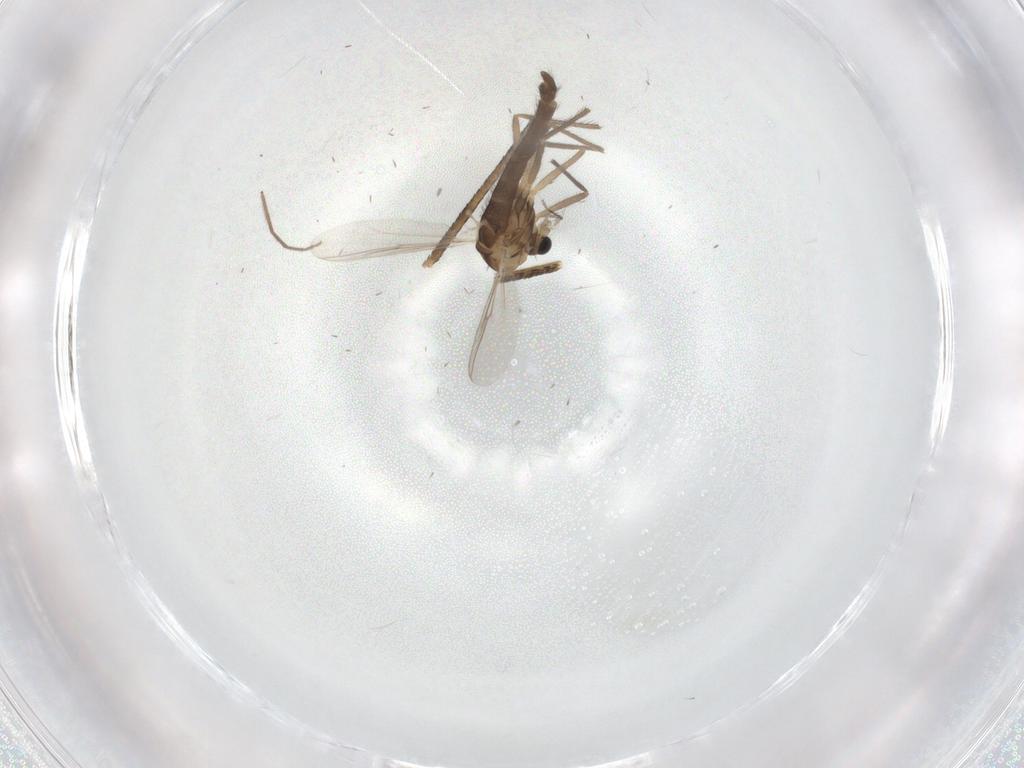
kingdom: Animalia
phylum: Arthropoda
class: Insecta
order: Diptera
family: Chironomidae
